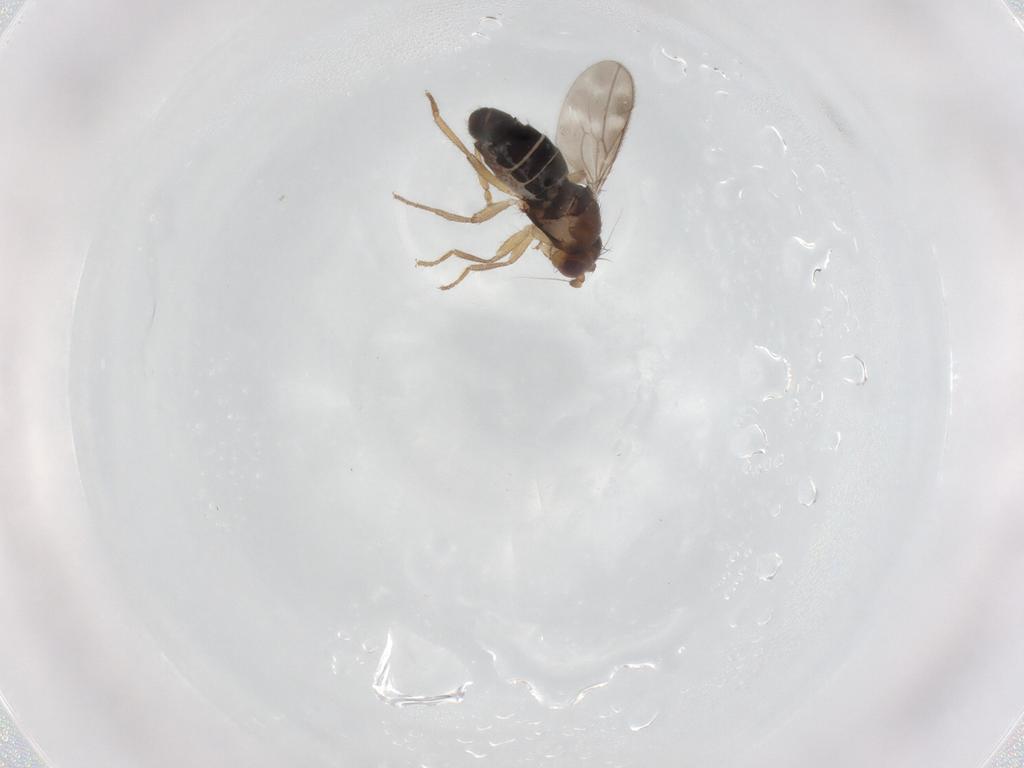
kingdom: Animalia
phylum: Arthropoda
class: Insecta
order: Diptera
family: Sphaeroceridae
